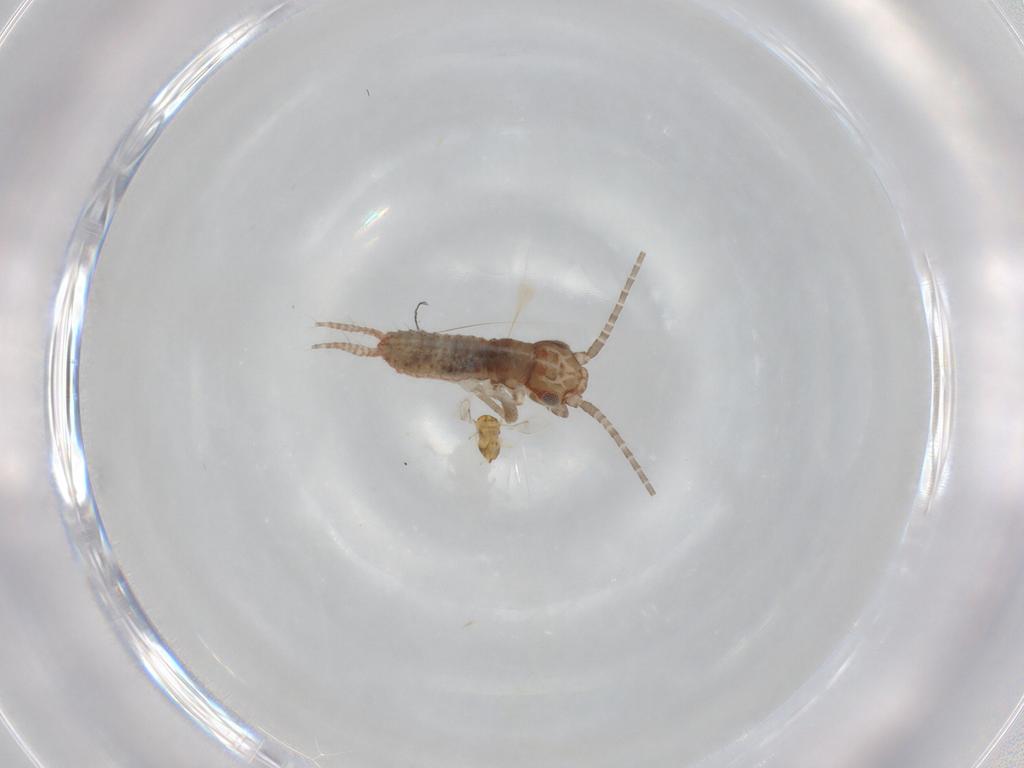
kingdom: Animalia
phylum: Arthropoda
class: Insecta
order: Orthoptera
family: Mogoplistidae
